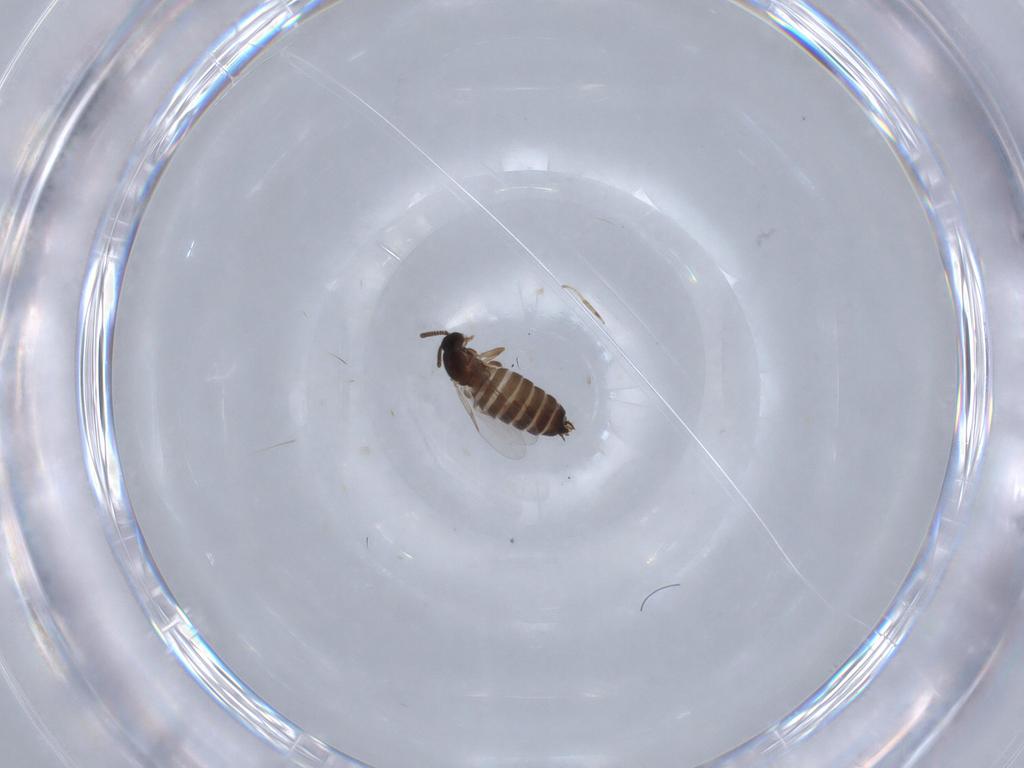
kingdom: Animalia
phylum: Arthropoda
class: Insecta
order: Diptera
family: Scatopsidae
